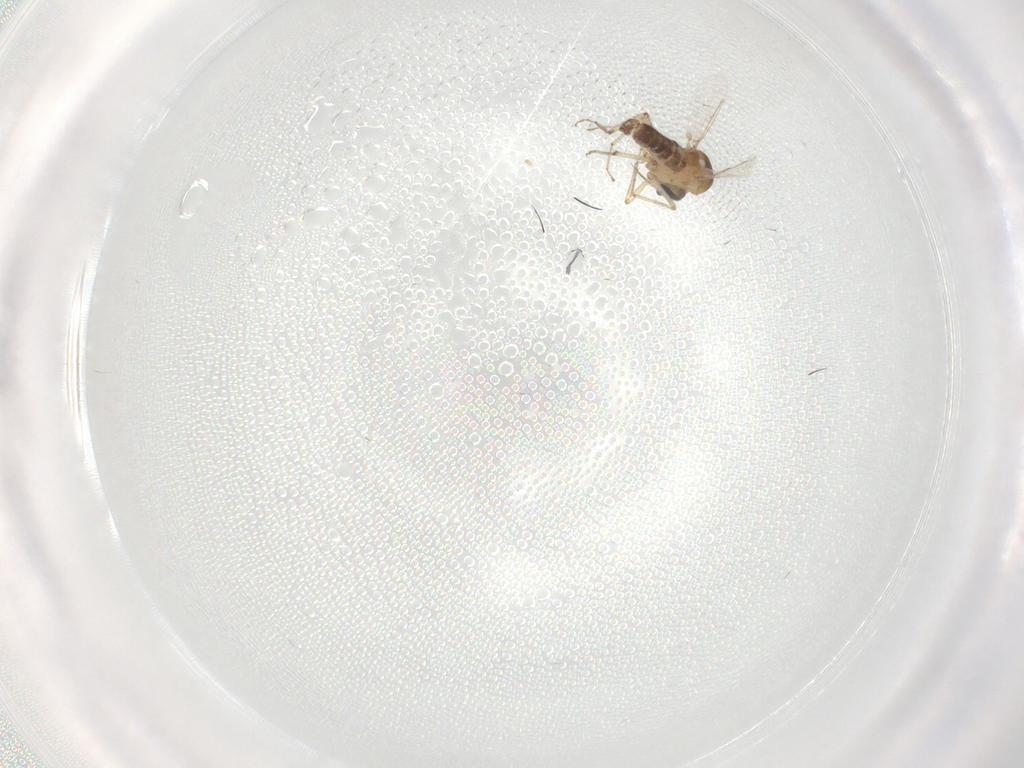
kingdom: Animalia
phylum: Arthropoda
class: Insecta
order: Diptera
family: Ceratopogonidae
